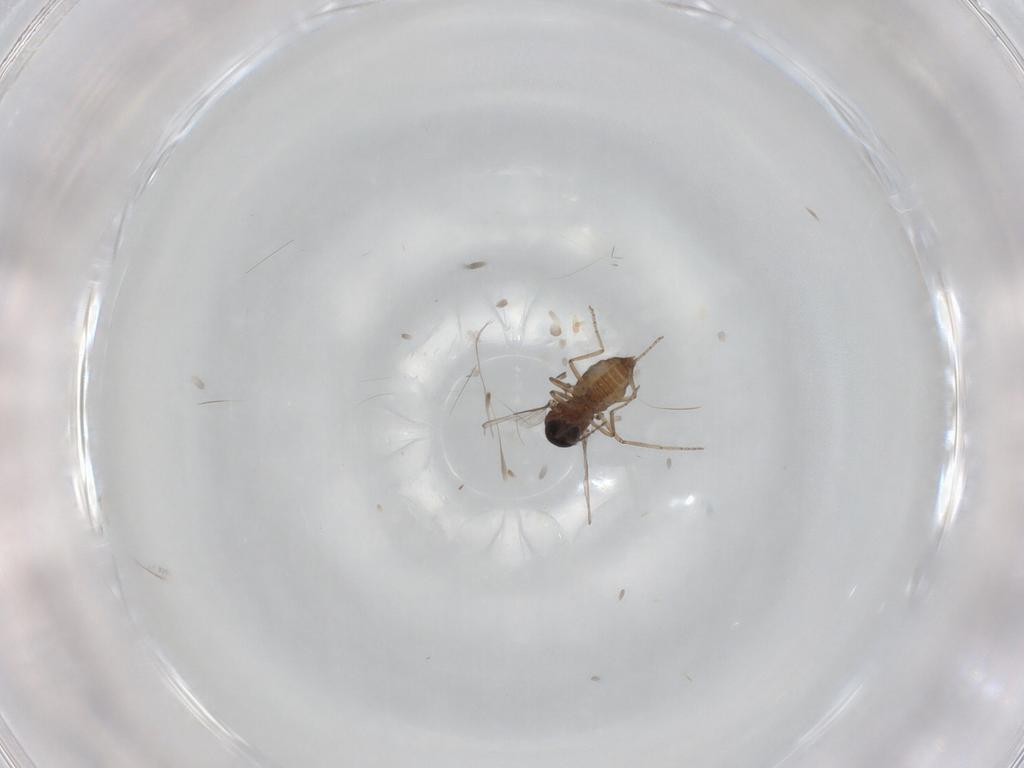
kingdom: Animalia
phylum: Arthropoda
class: Insecta
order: Diptera
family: Ceratopogonidae
